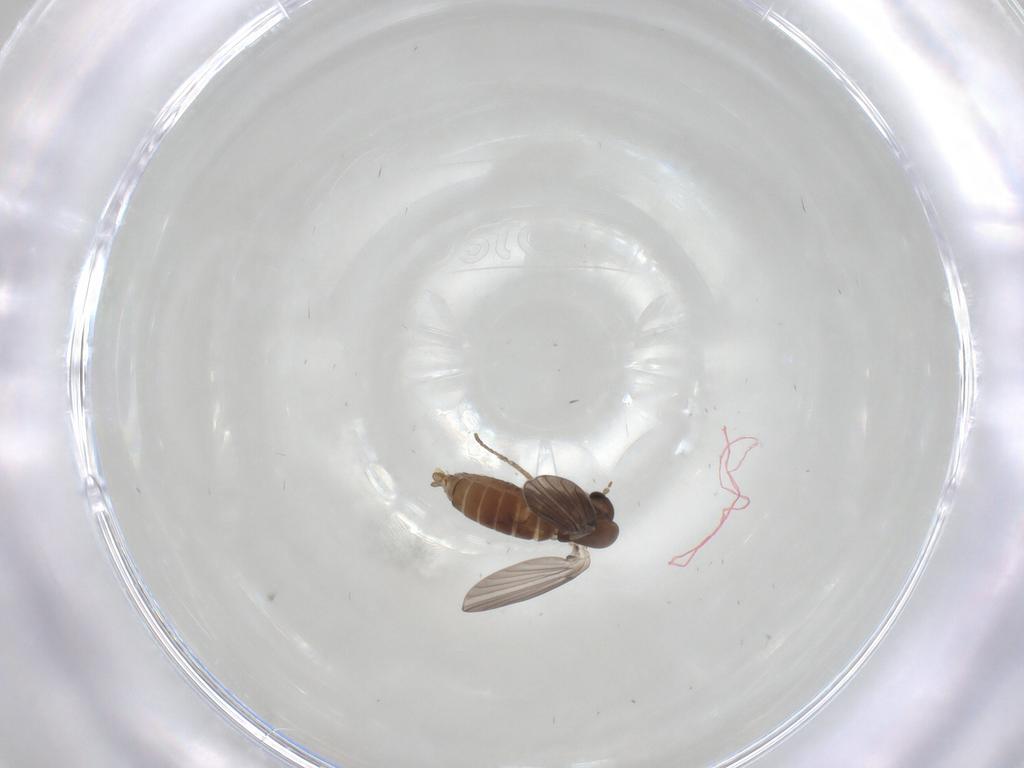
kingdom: Animalia
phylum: Arthropoda
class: Insecta
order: Diptera
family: Sphaeroceridae
